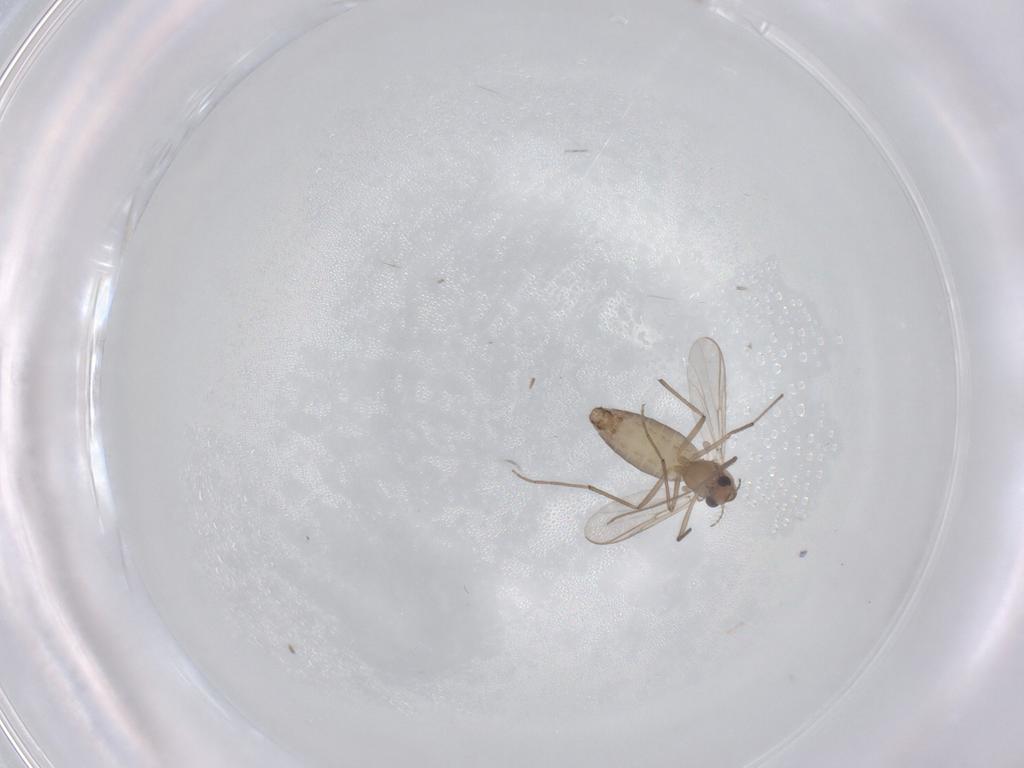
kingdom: Animalia
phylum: Arthropoda
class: Insecta
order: Diptera
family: Chironomidae
